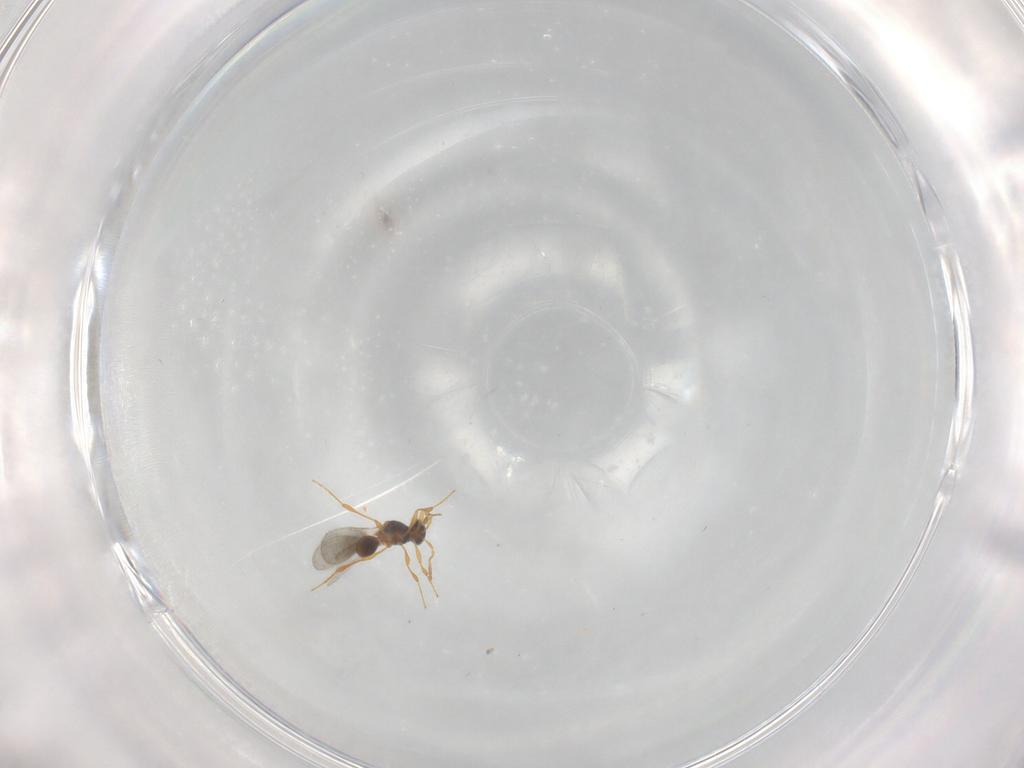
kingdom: Animalia
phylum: Arthropoda
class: Insecta
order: Hymenoptera
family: Platygastridae
